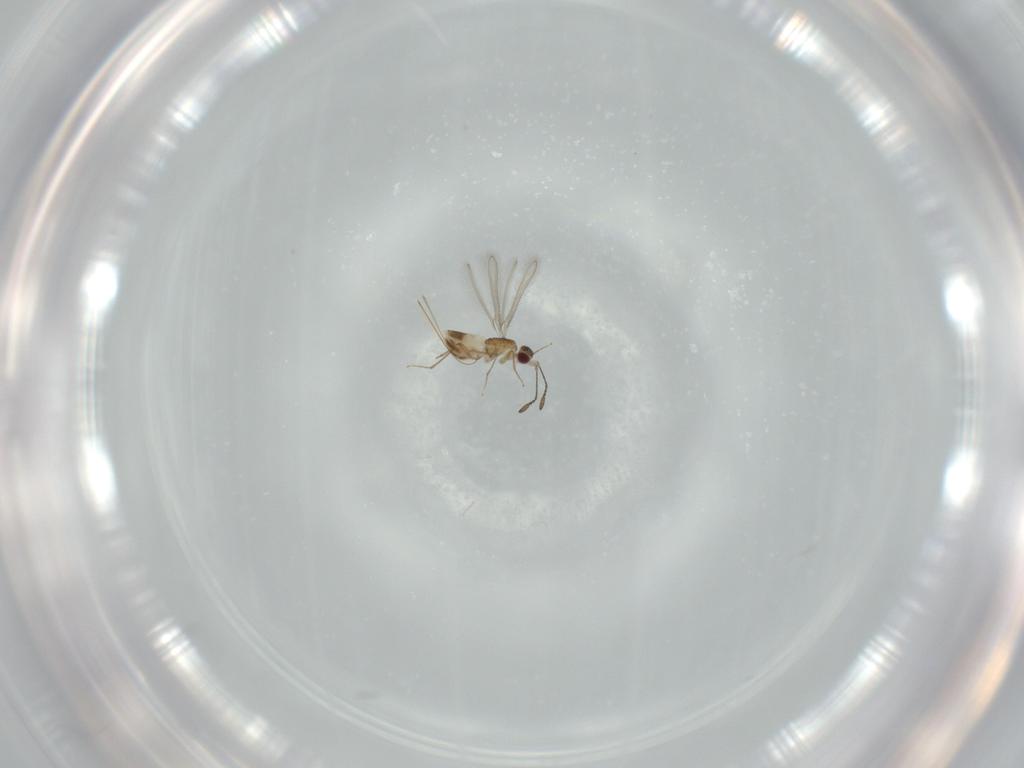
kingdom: Animalia
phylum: Arthropoda
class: Insecta
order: Hymenoptera
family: Mymaridae
